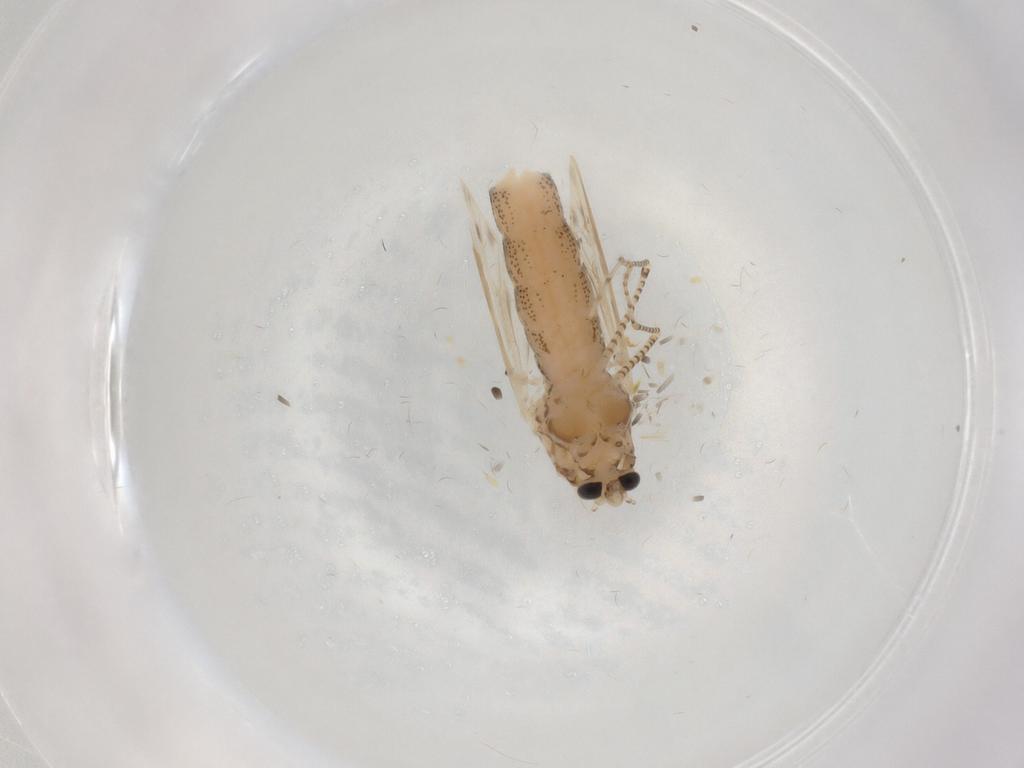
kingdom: Animalia
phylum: Arthropoda
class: Insecta
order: Diptera
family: Chaoboridae
